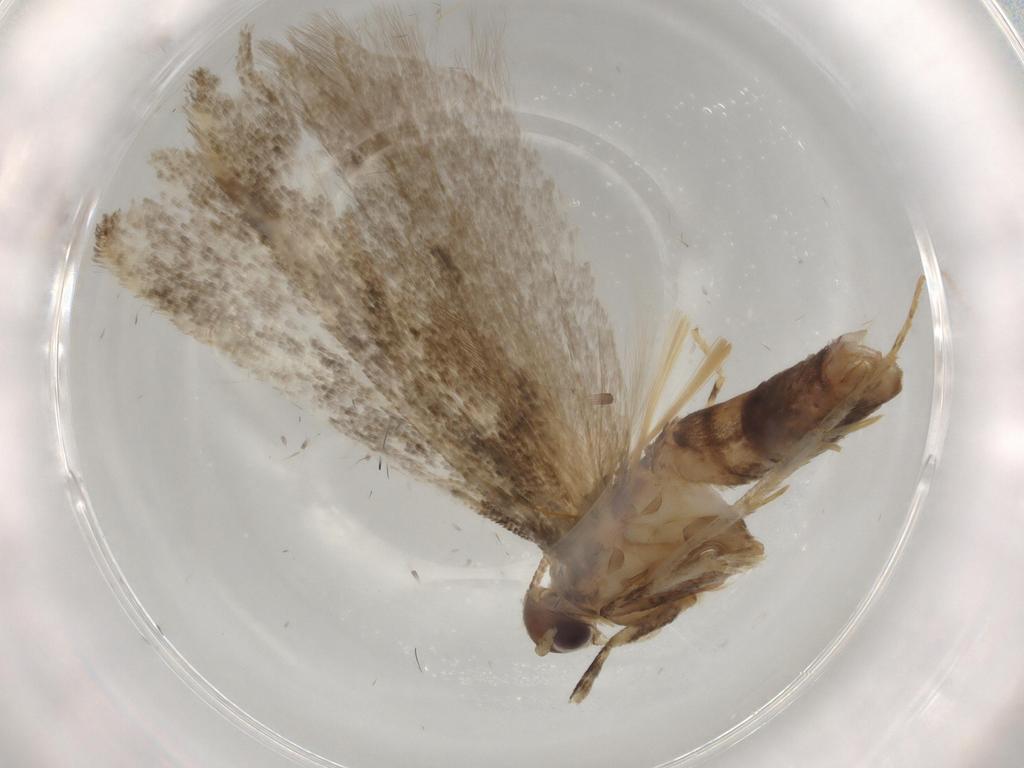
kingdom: Animalia
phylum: Arthropoda
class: Insecta
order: Lepidoptera
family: Gelechiidae
